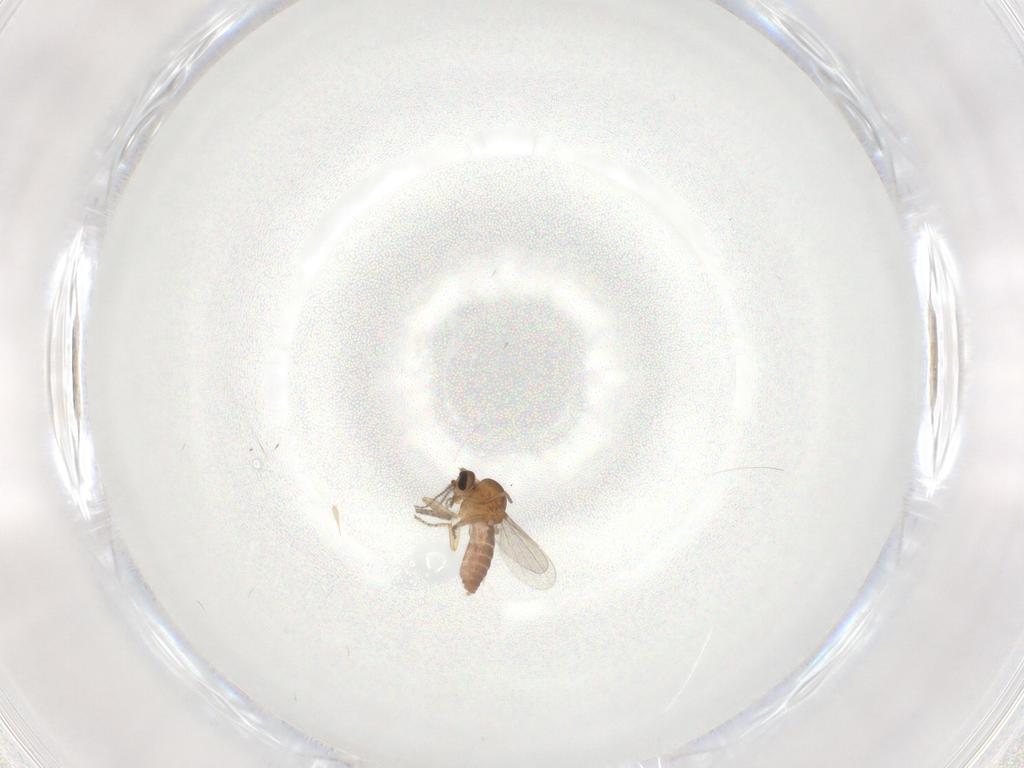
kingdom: Animalia
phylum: Arthropoda
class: Insecta
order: Diptera
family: Ceratopogonidae
